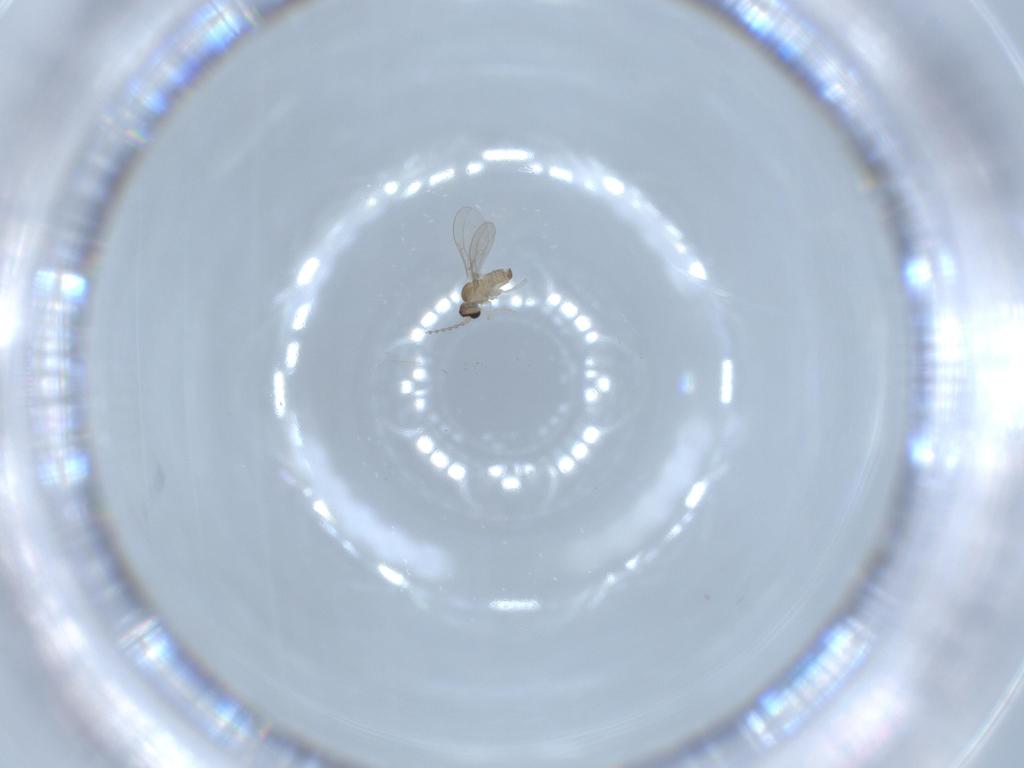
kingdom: Animalia
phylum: Arthropoda
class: Insecta
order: Diptera
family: Cecidomyiidae
